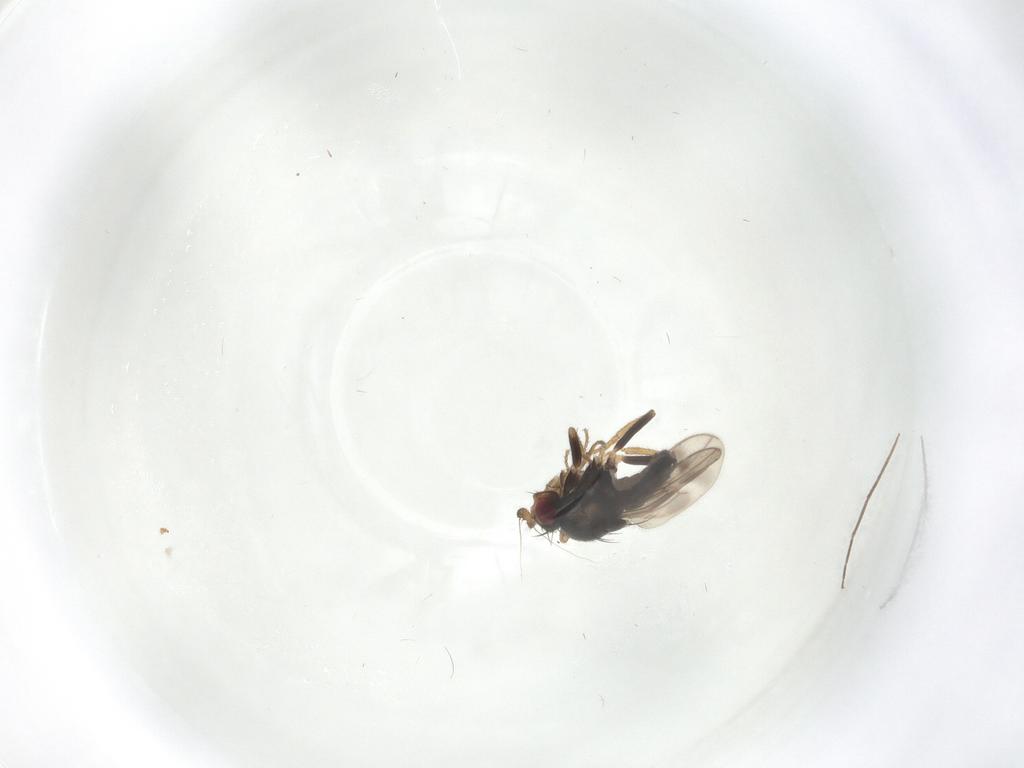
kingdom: Animalia
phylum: Arthropoda
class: Insecta
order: Diptera
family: Sphaeroceridae
